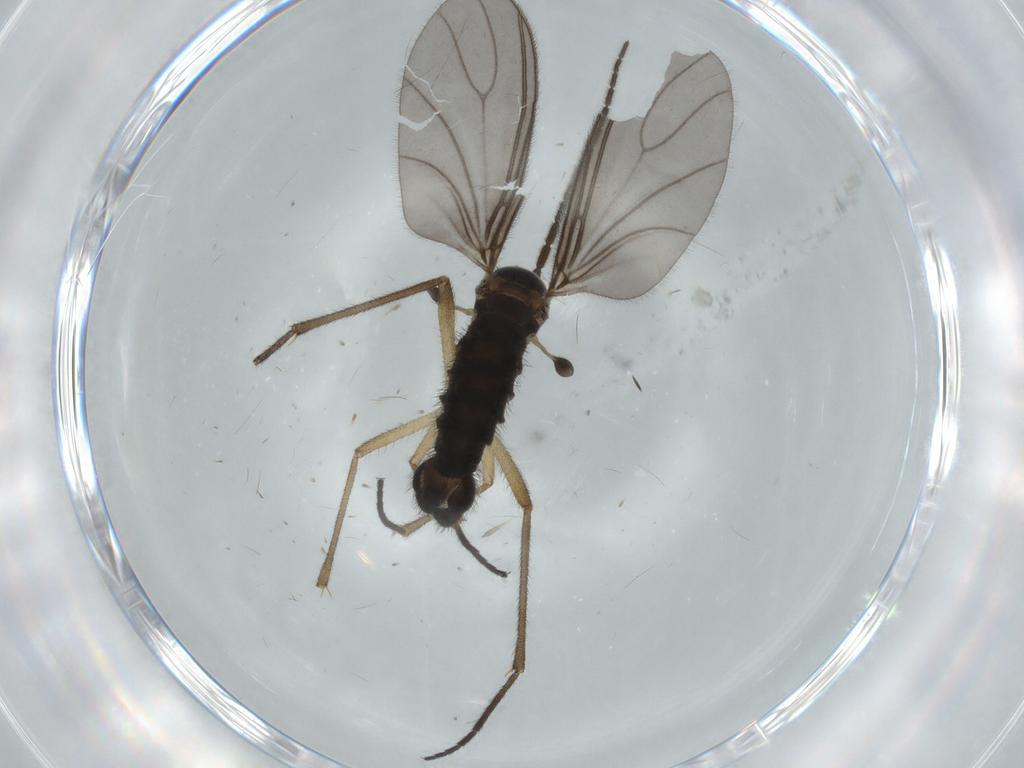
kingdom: Animalia
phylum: Arthropoda
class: Insecta
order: Diptera
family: Sciaridae
